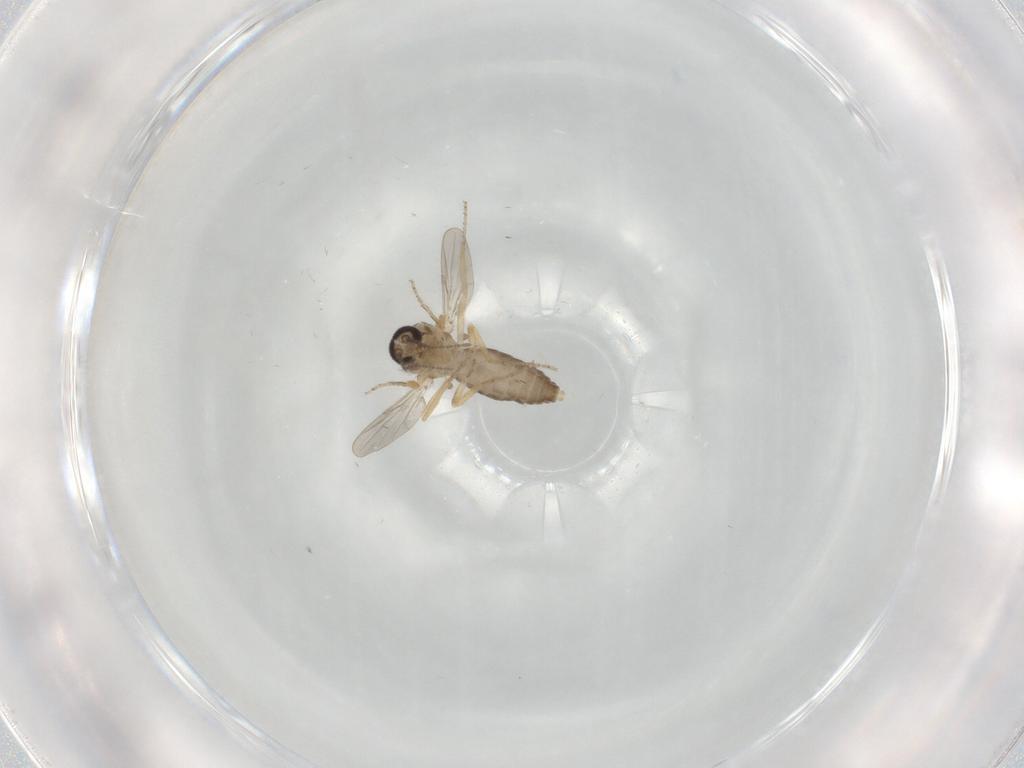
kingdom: Animalia
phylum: Arthropoda
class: Insecta
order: Diptera
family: Ceratopogonidae
